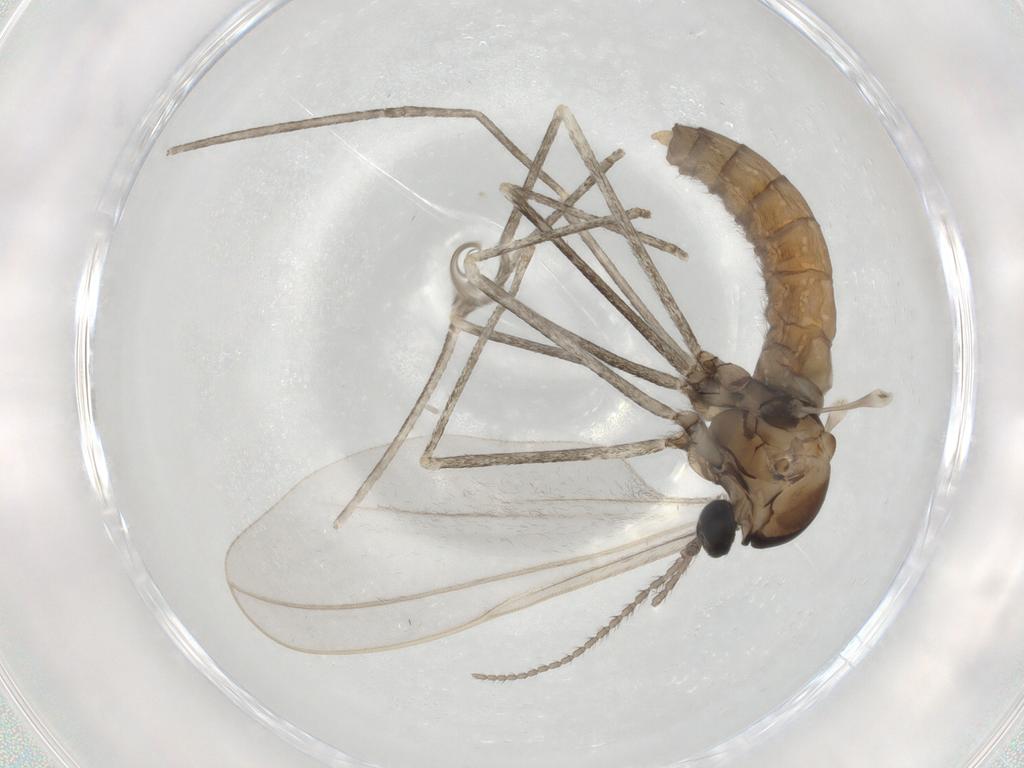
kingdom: Animalia
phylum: Arthropoda
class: Insecta
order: Diptera
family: Cecidomyiidae
